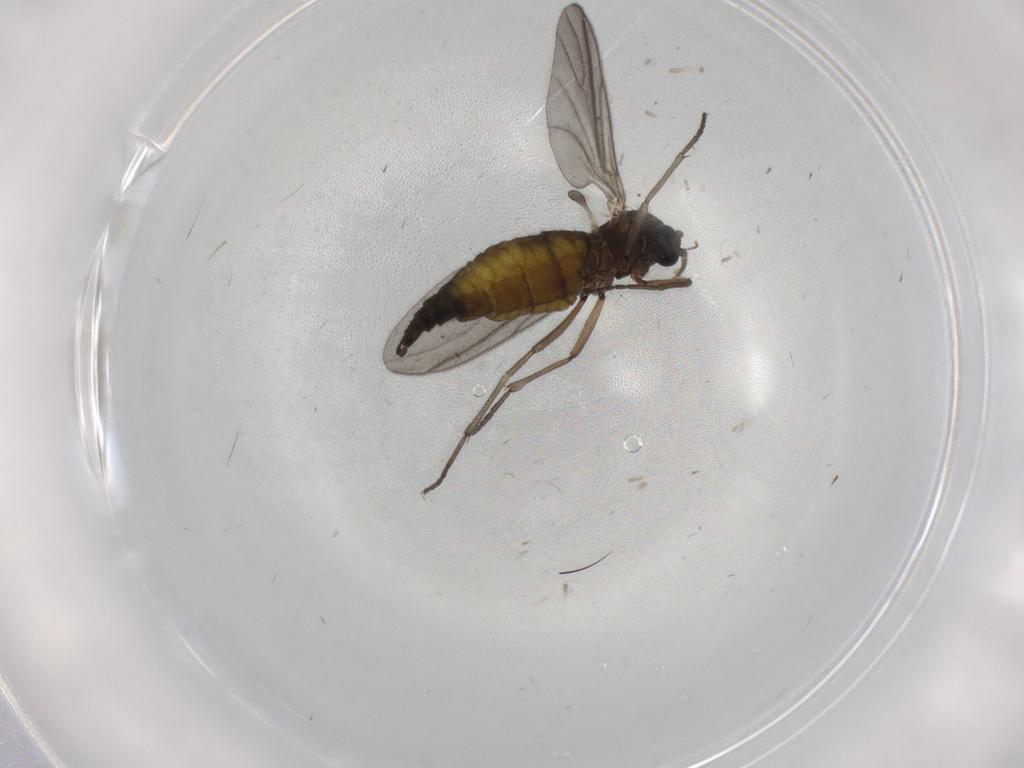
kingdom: Animalia
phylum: Arthropoda
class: Insecta
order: Diptera
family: Sciaridae
